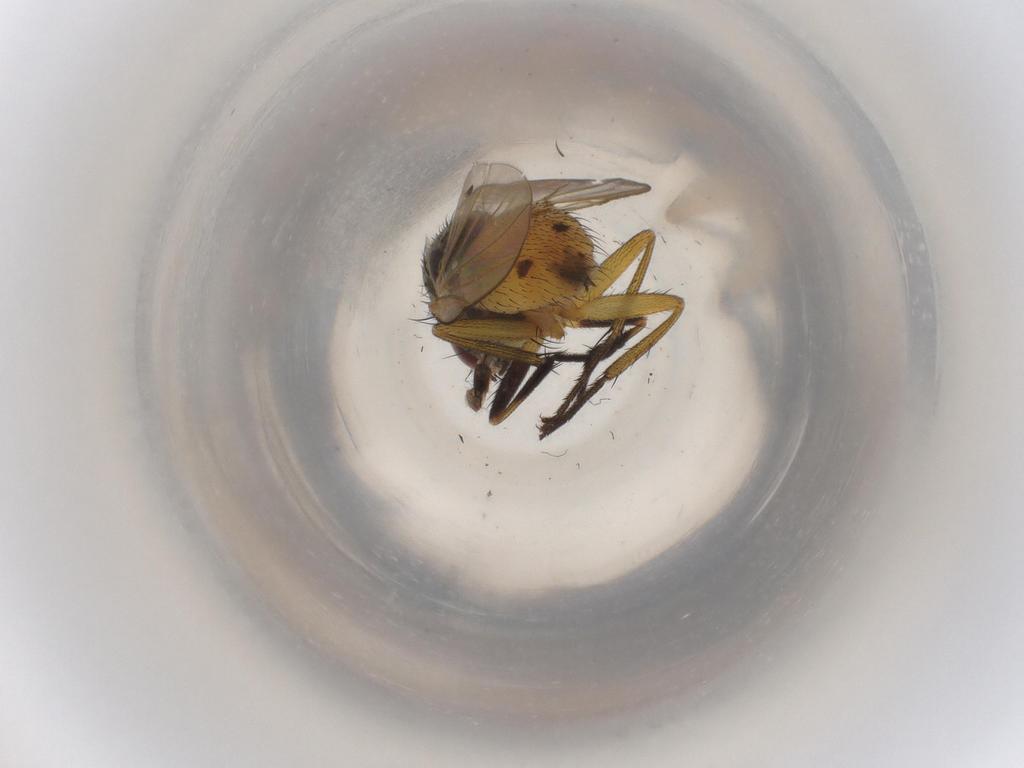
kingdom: Animalia
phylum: Arthropoda
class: Insecta
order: Diptera
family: Muscidae
